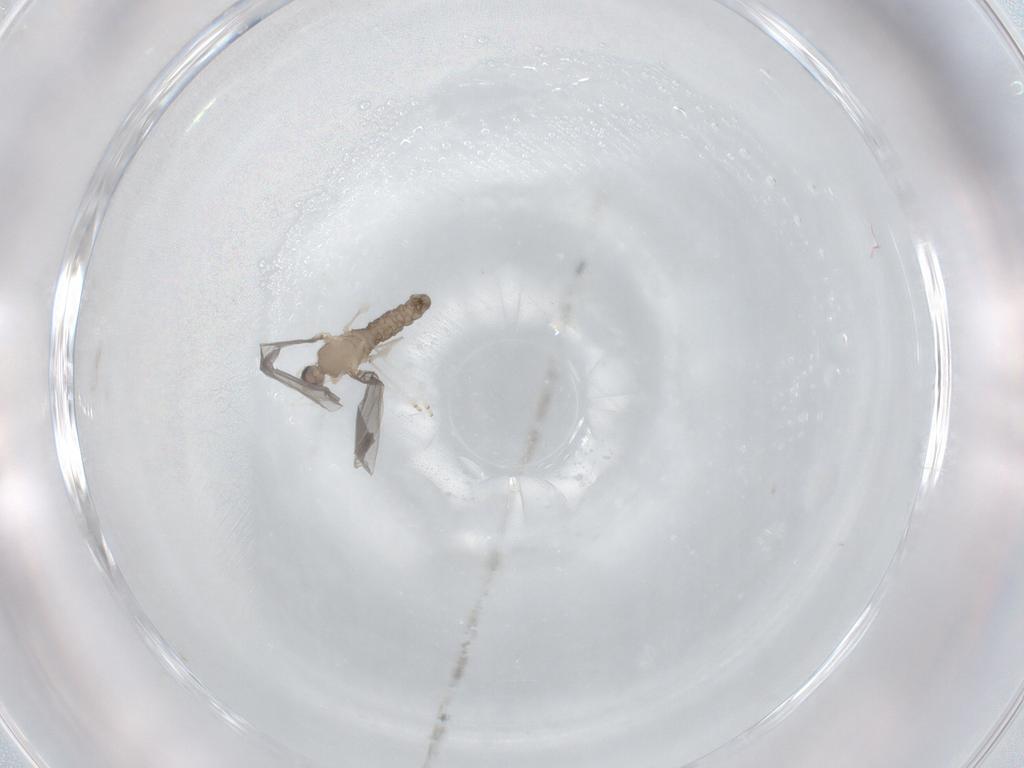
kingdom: Animalia
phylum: Arthropoda
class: Insecta
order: Diptera
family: Cecidomyiidae
